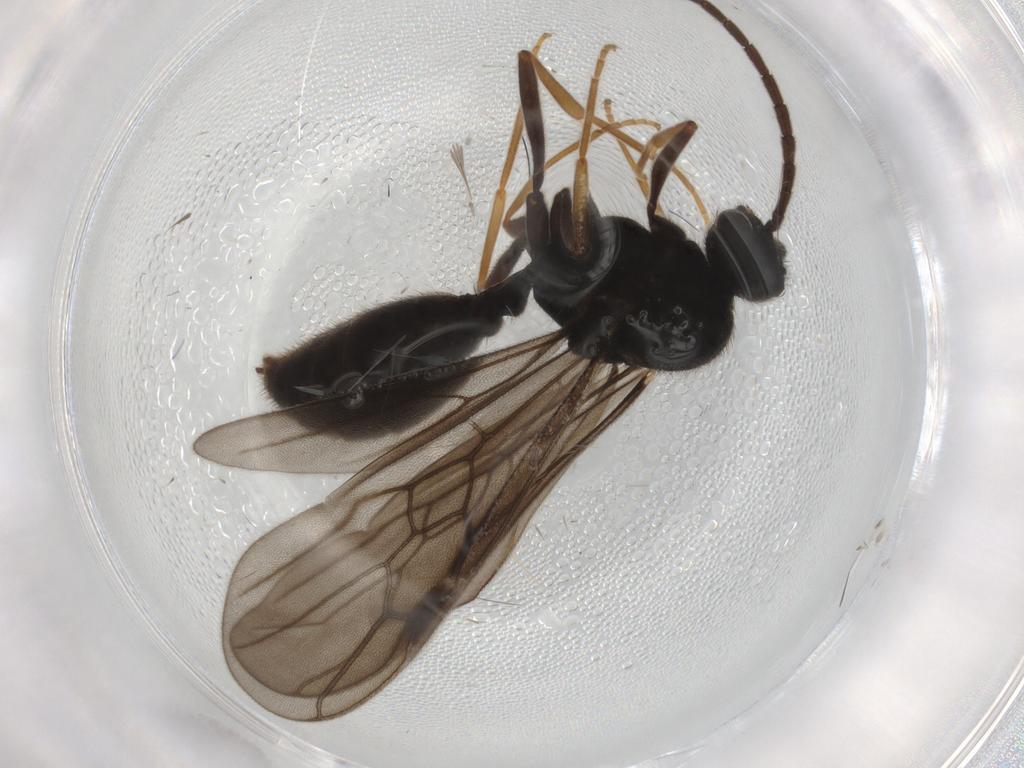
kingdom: Animalia
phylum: Arthropoda
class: Insecta
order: Hymenoptera
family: Formicidae
